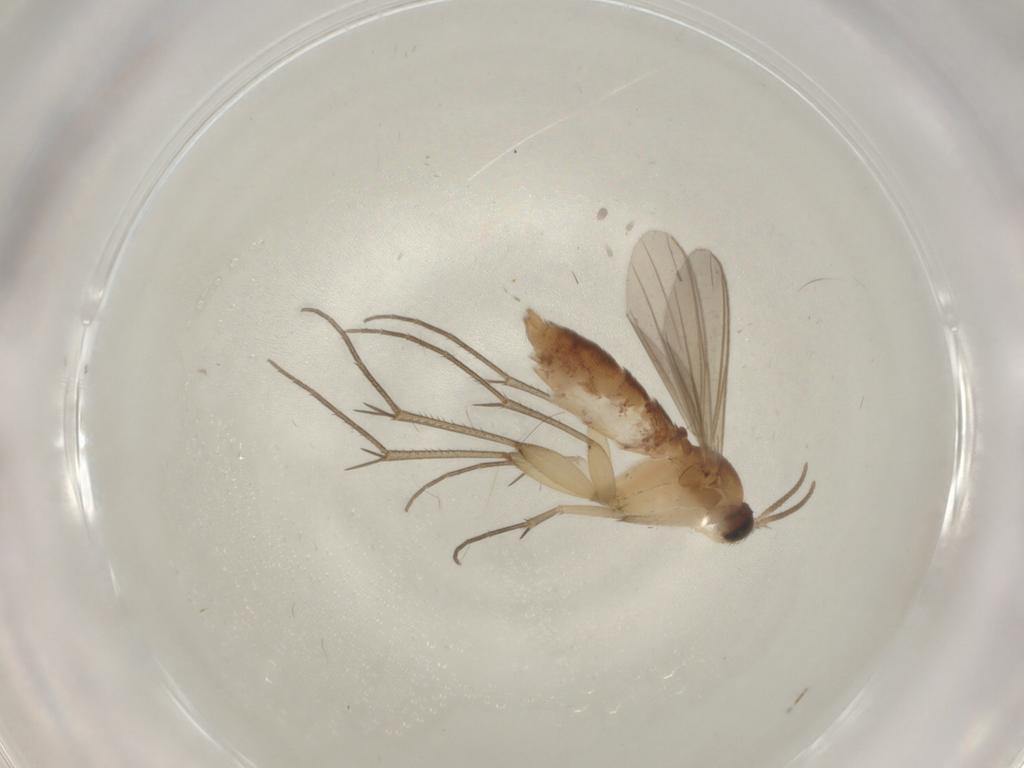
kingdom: Animalia
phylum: Arthropoda
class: Insecta
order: Diptera
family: Mycetophilidae
